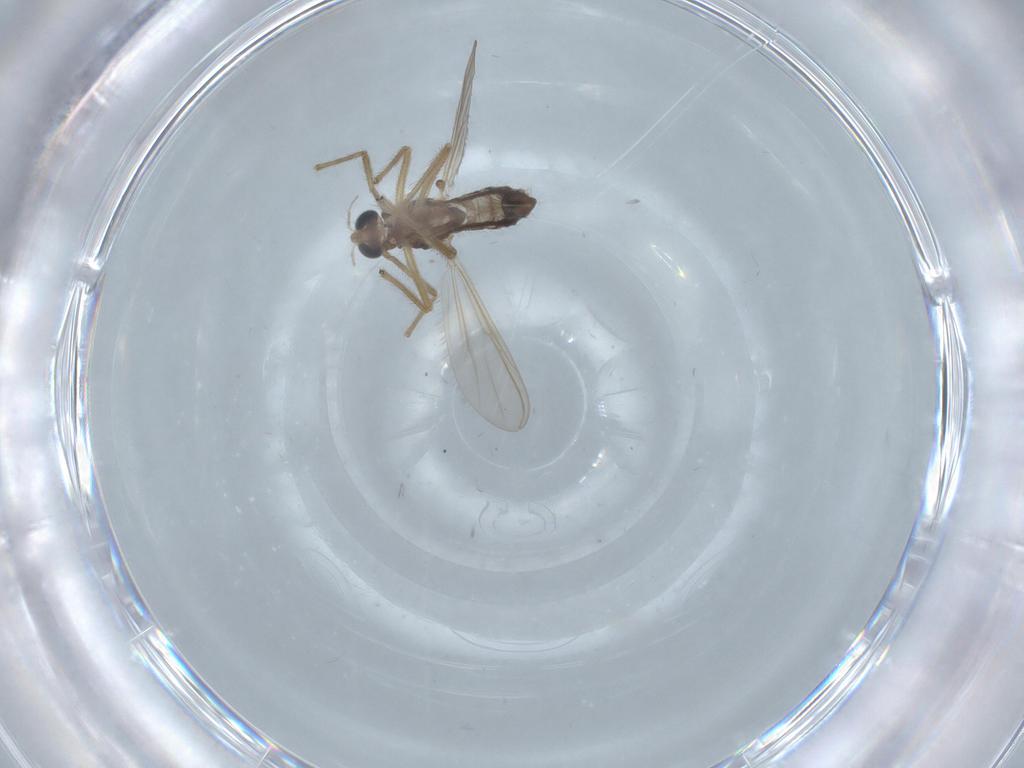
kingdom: Animalia
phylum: Arthropoda
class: Insecta
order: Diptera
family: Chironomidae
